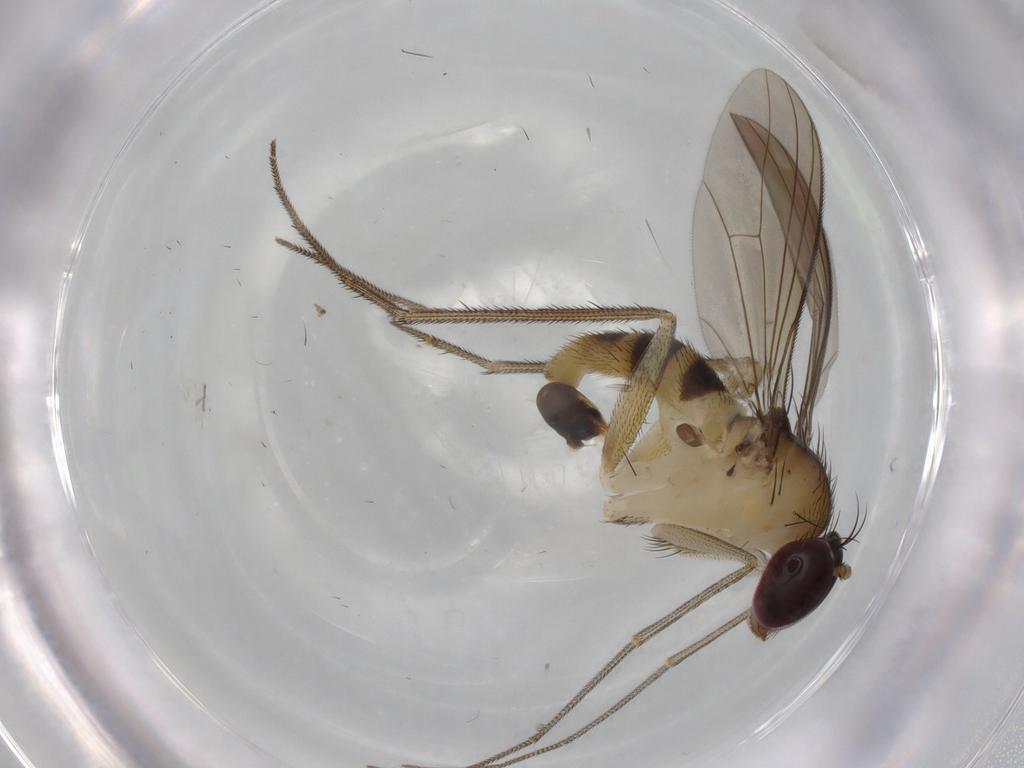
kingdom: Animalia
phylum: Arthropoda
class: Insecta
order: Diptera
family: Dolichopodidae
